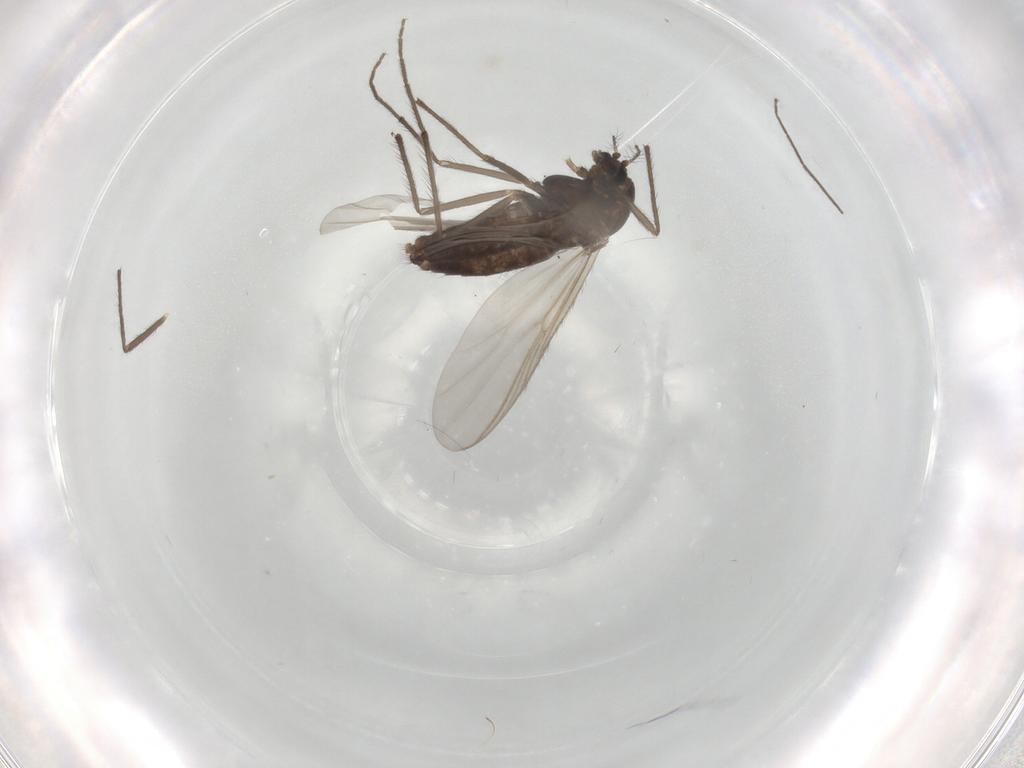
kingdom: Animalia
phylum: Arthropoda
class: Insecta
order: Diptera
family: Chironomidae
